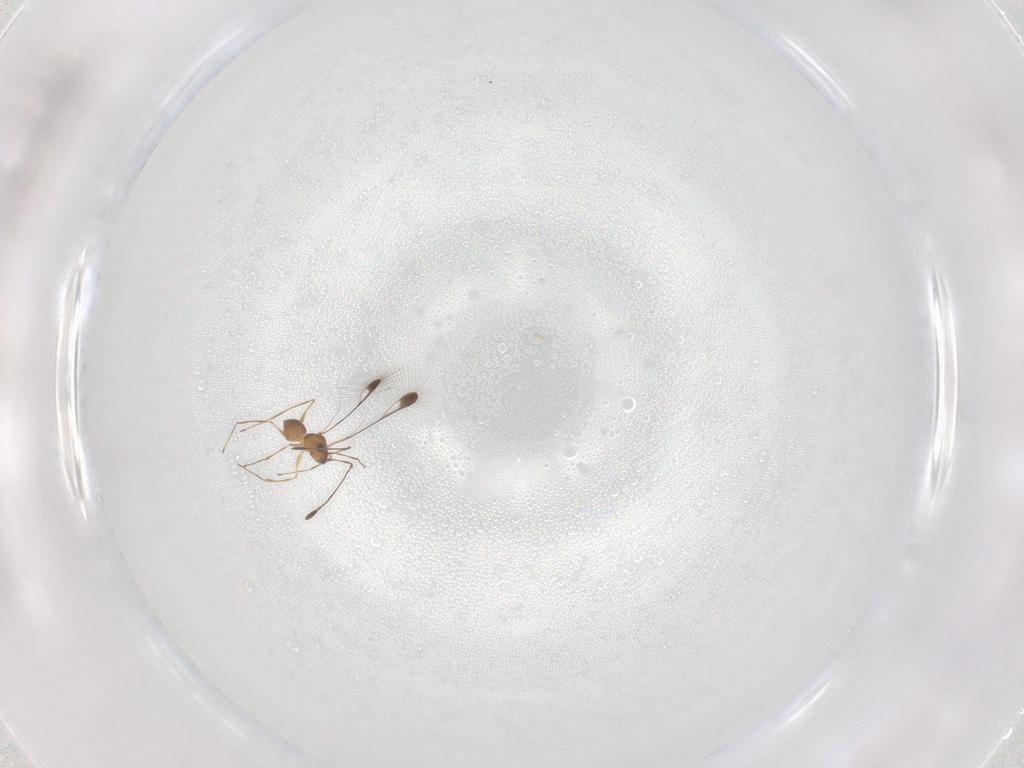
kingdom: Animalia
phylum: Arthropoda
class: Insecta
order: Hymenoptera
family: Mymaridae
